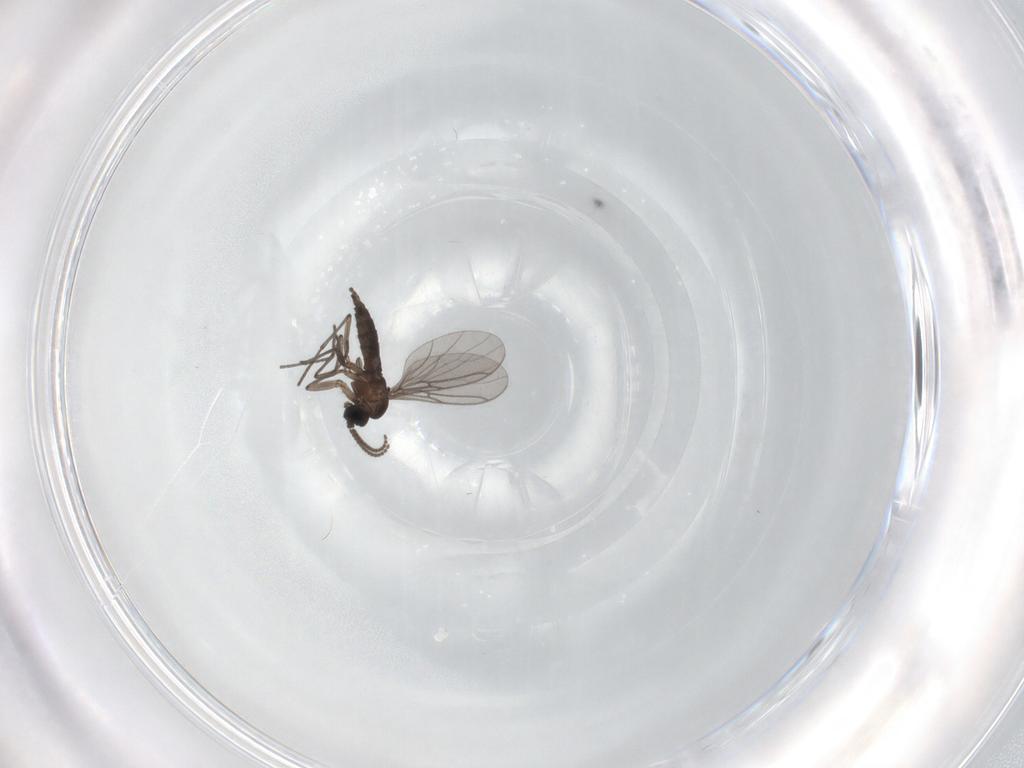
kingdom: Animalia
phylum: Arthropoda
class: Insecta
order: Diptera
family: Sciaridae
